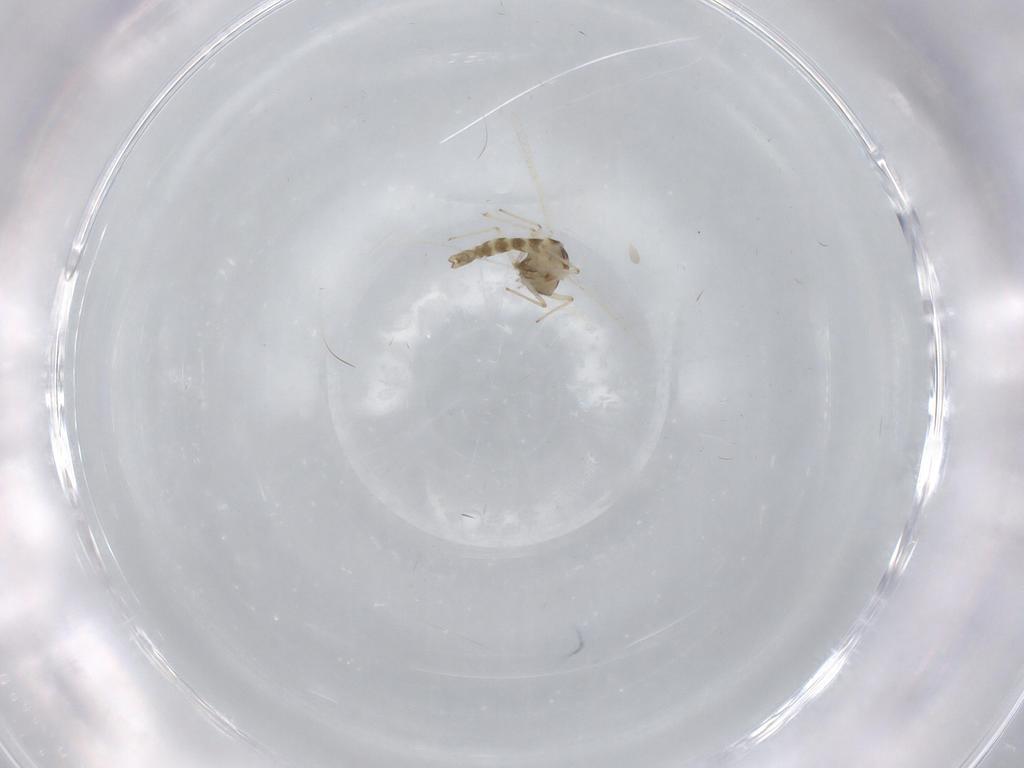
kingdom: Animalia
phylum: Arthropoda
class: Insecta
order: Diptera
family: Chironomidae
